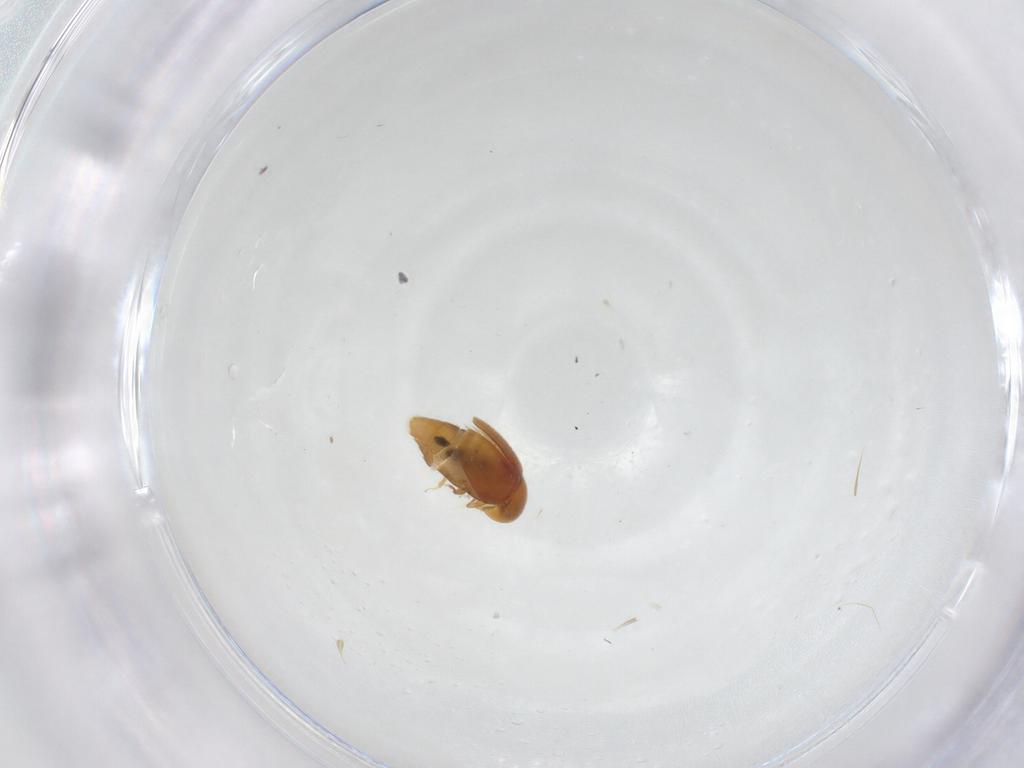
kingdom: Animalia
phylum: Arthropoda
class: Insecta
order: Coleoptera
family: Corylophidae
